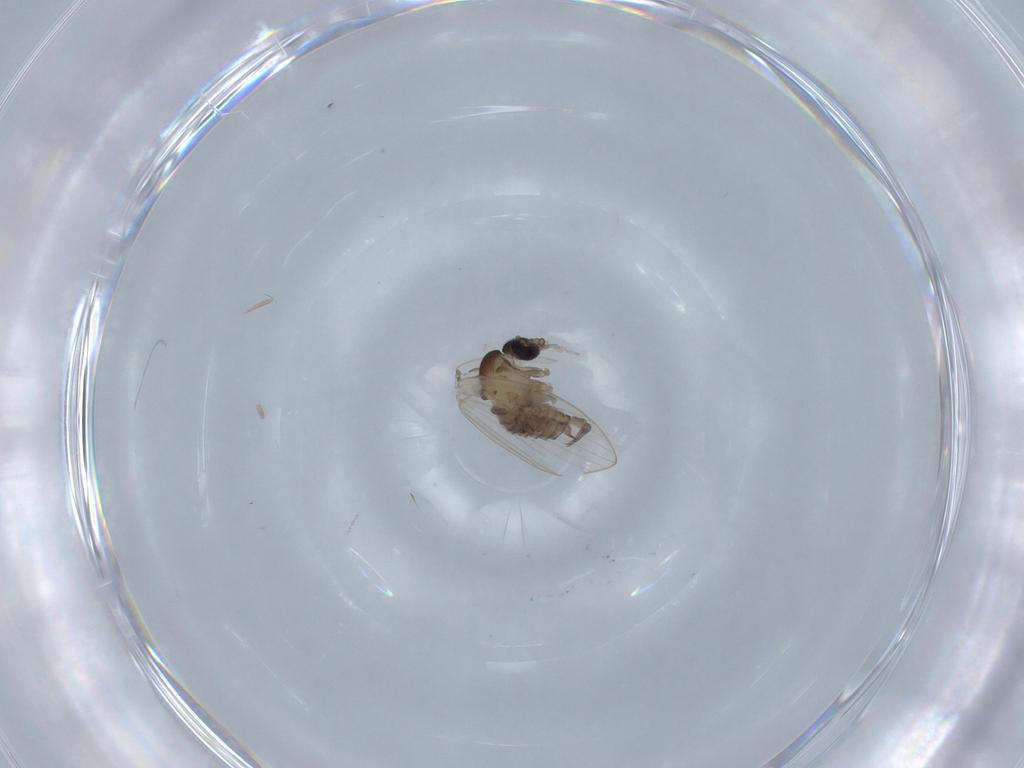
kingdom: Animalia
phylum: Arthropoda
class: Insecta
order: Diptera
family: Psychodidae
